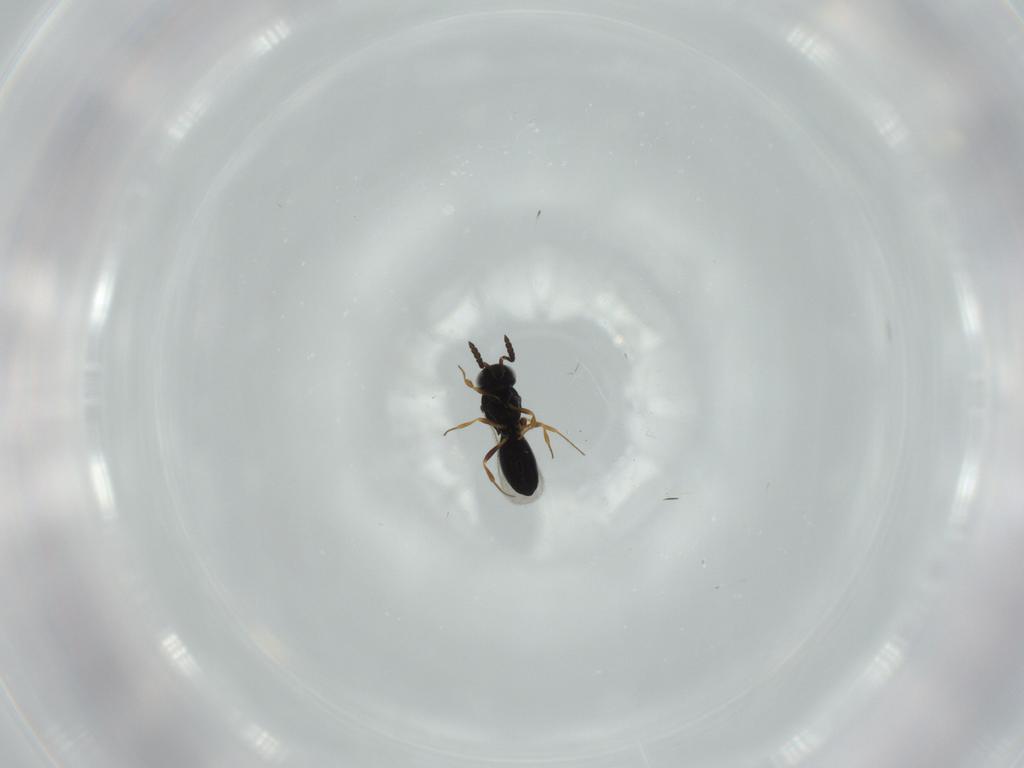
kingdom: Animalia
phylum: Arthropoda
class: Insecta
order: Hymenoptera
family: Scelionidae
